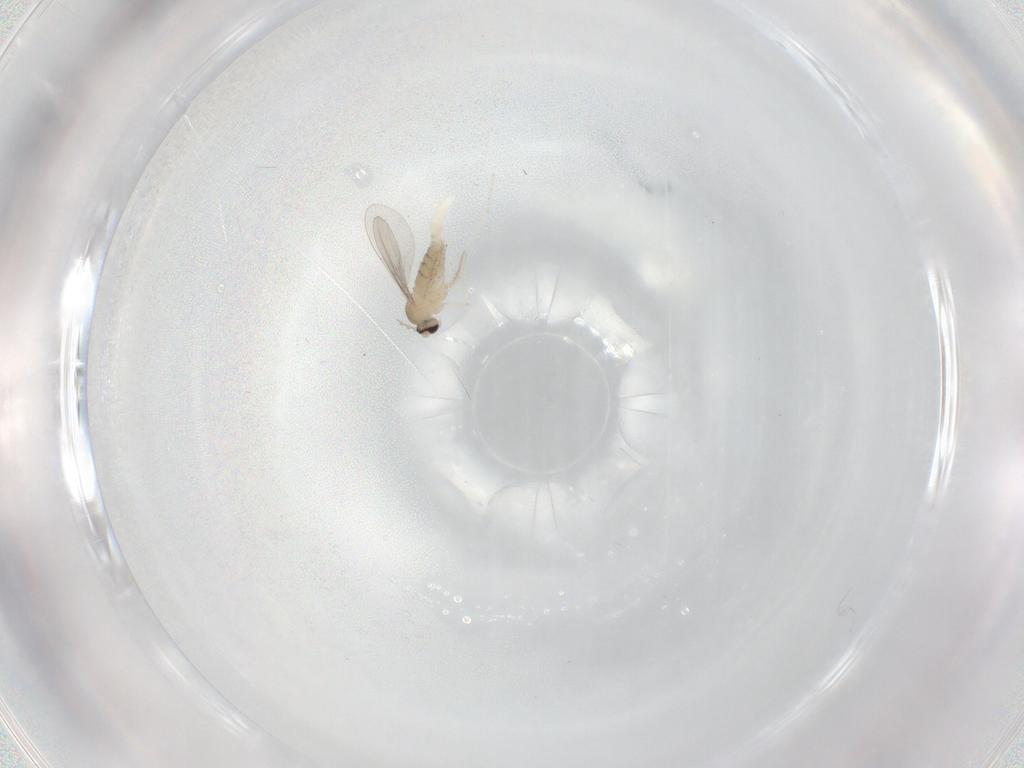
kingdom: Animalia
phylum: Arthropoda
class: Insecta
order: Diptera
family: Cecidomyiidae
